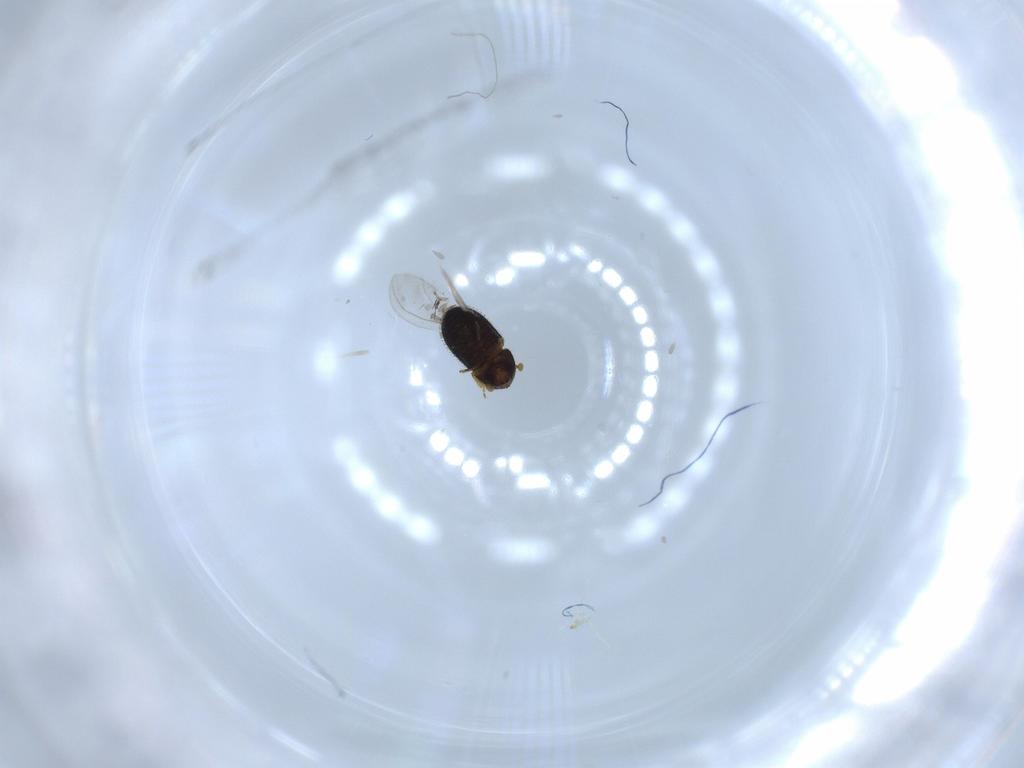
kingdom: Animalia
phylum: Arthropoda
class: Insecta
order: Coleoptera
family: Curculionidae
